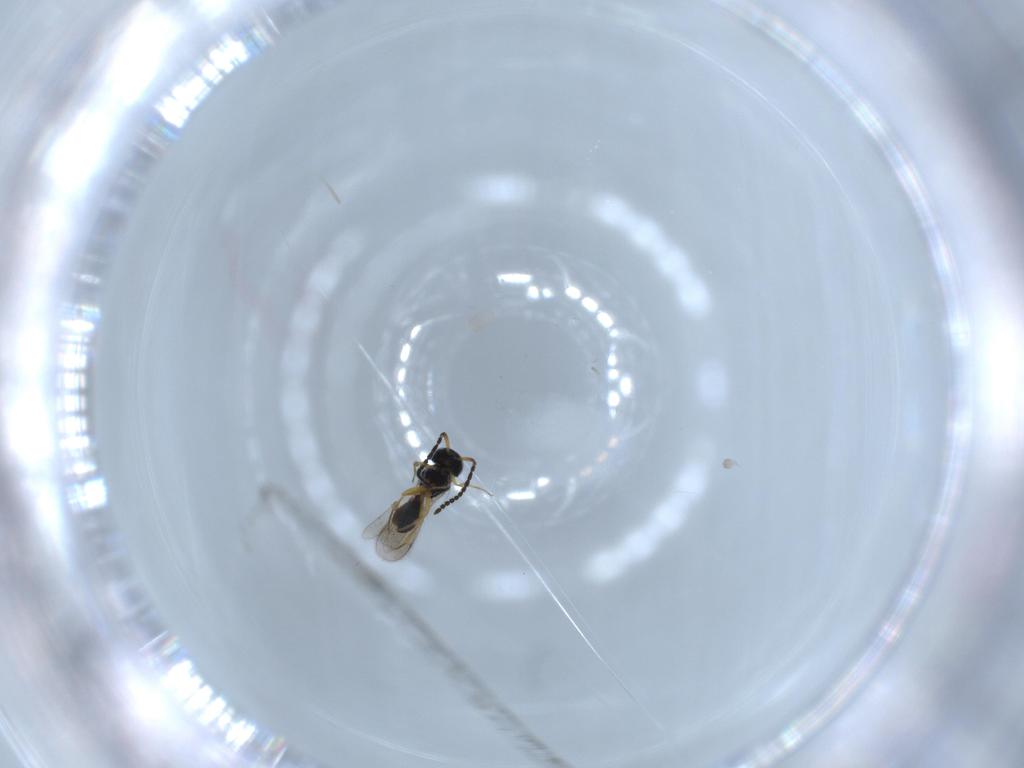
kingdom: Animalia
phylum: Arthropoda
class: Insecta
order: Hymenoptera
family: Scelionidae
